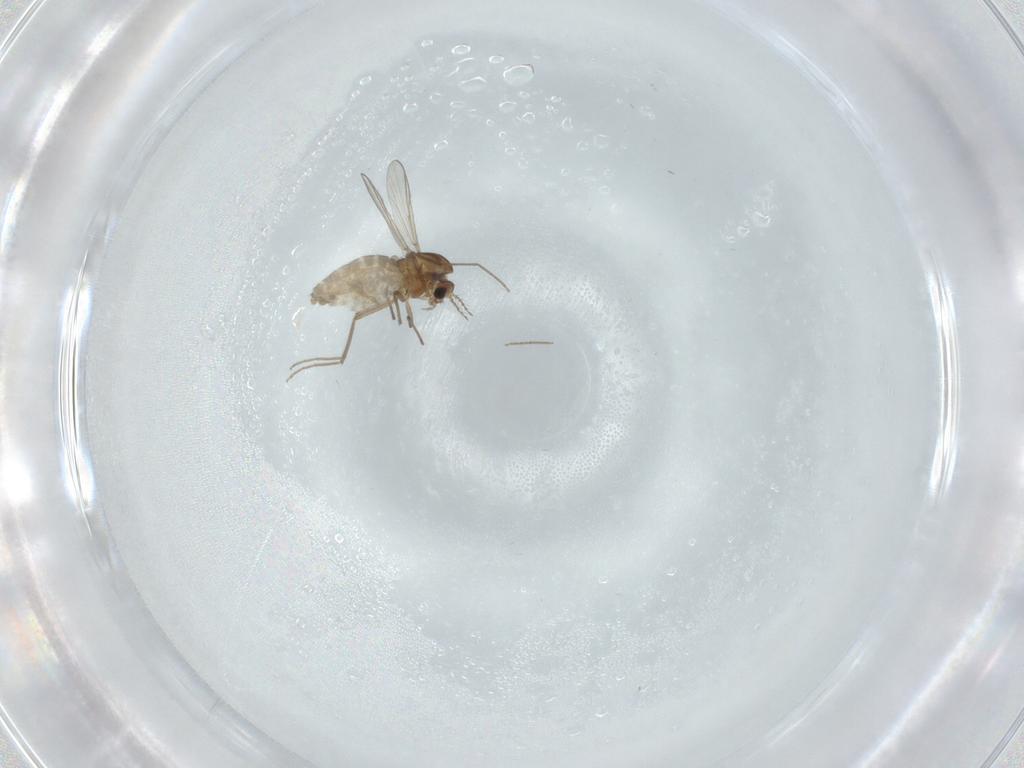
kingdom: Animalia
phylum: Arthropoda
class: Insecta
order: Diptera
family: Chironomidae
